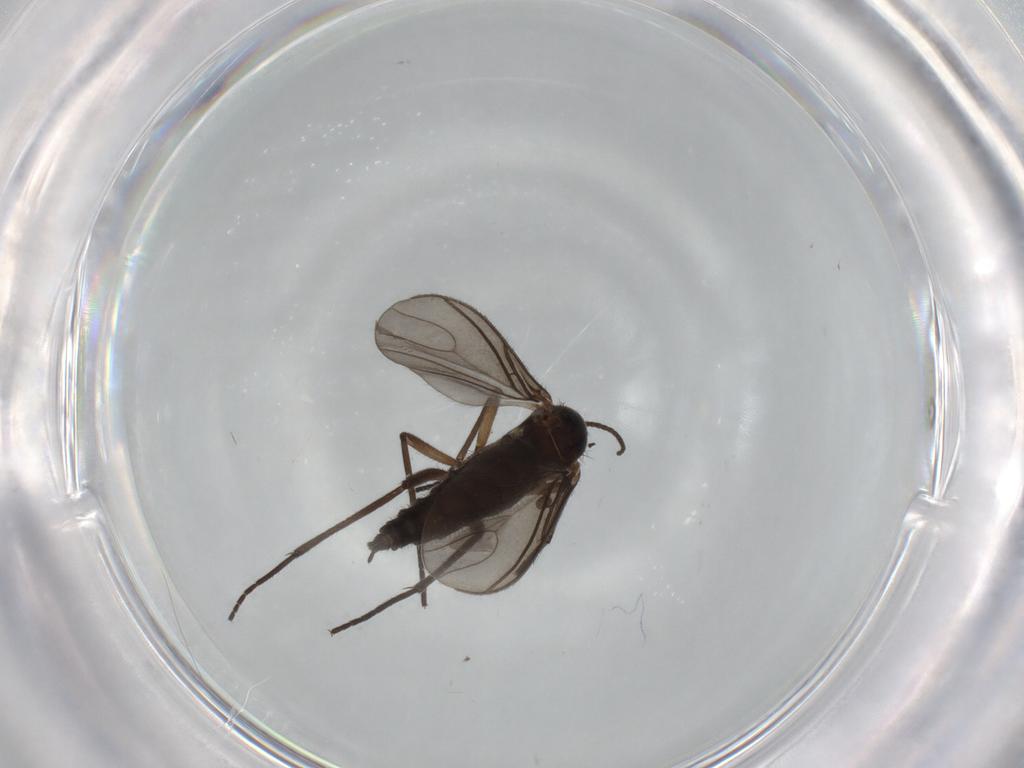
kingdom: Animalia
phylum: Arthropoda
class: Insecta
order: Diptera
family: Sciaridae
